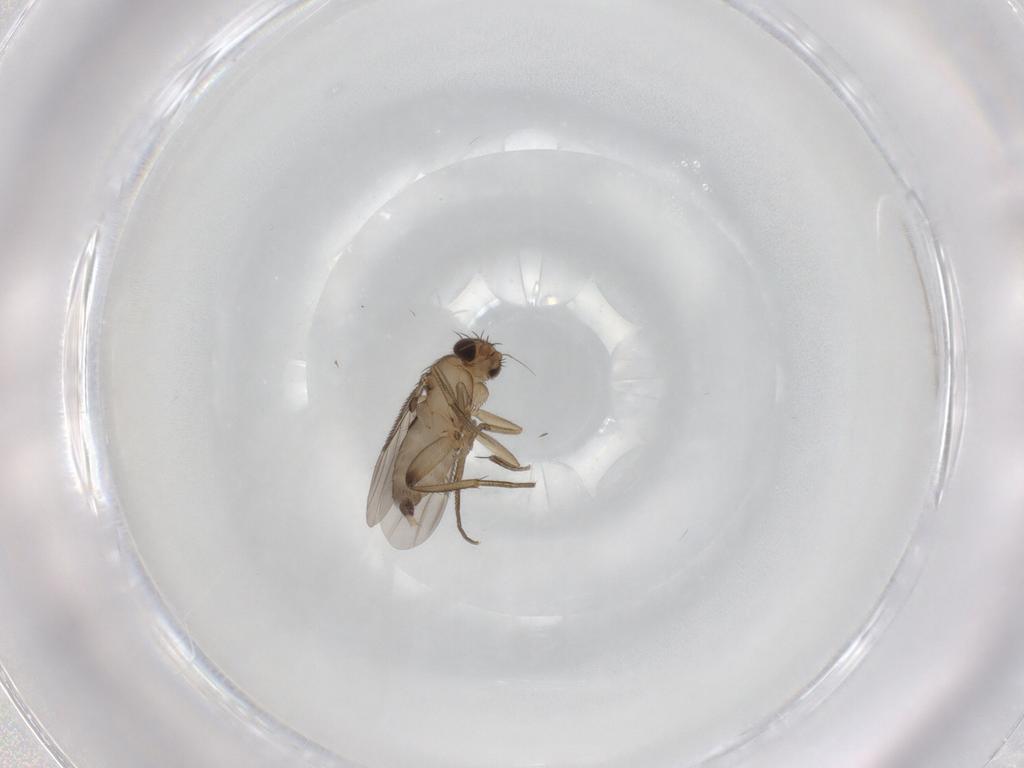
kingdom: Animalia
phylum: Arthropoda
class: Insecta
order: Diptera
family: Phoridae
